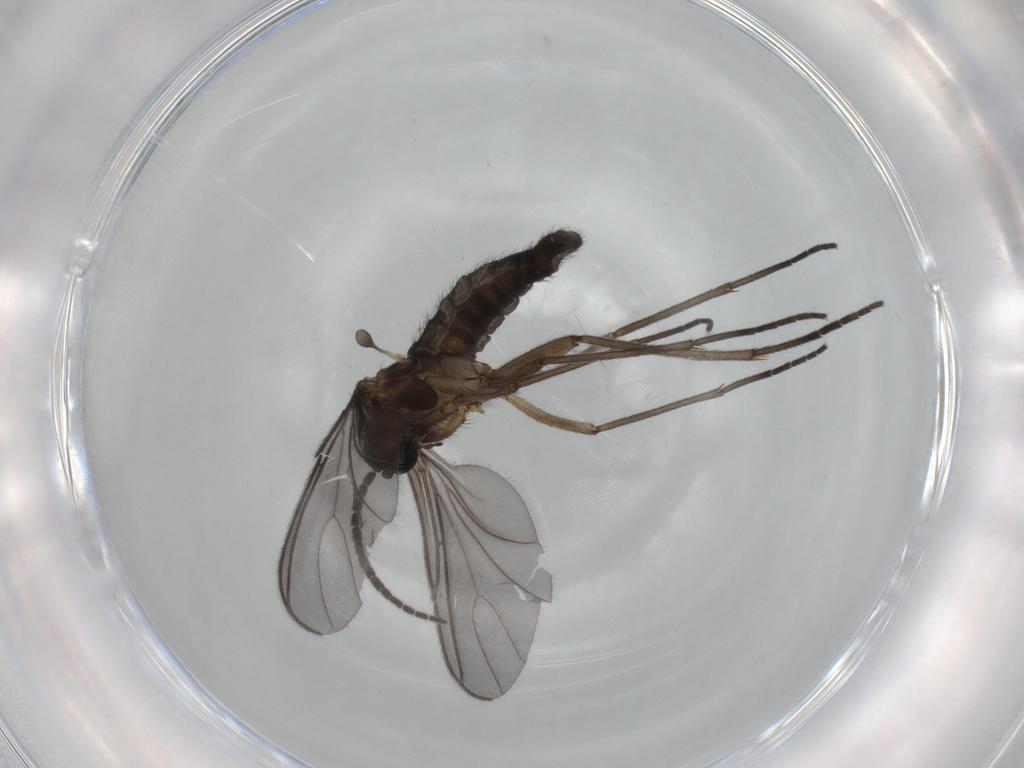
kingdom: Animalia
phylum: Arthropoda
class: Insecta
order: Diptera
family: Sciaridae
